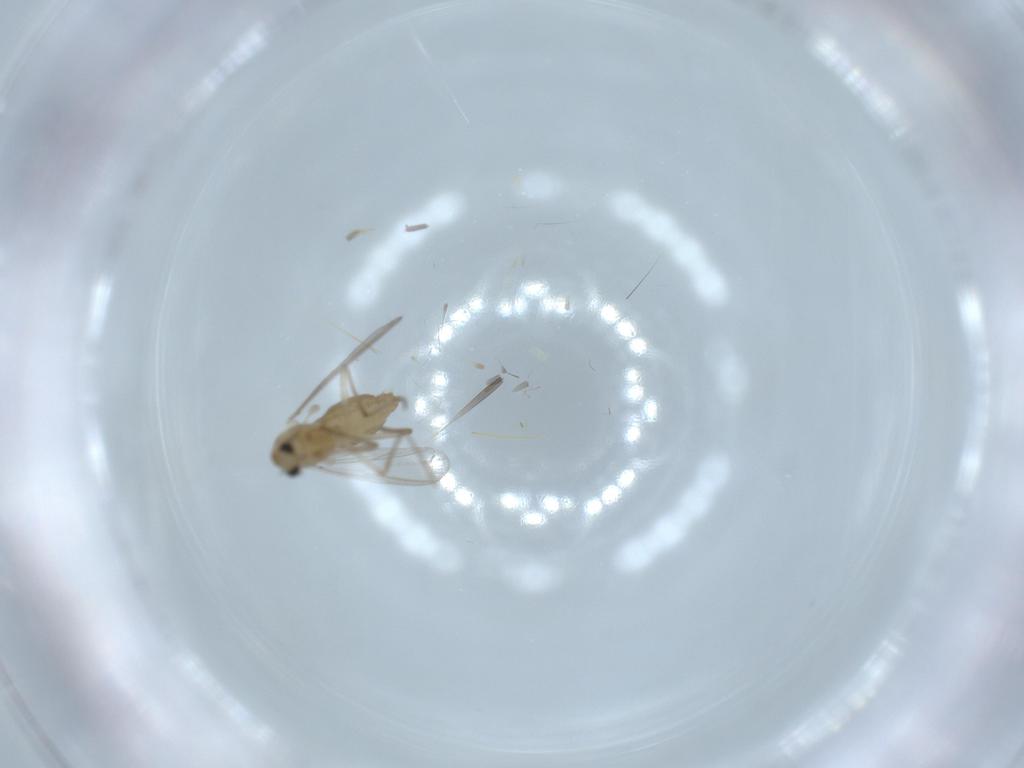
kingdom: Animalia
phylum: Arthropoda
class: Insecta
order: Diptera
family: Chironomidae
